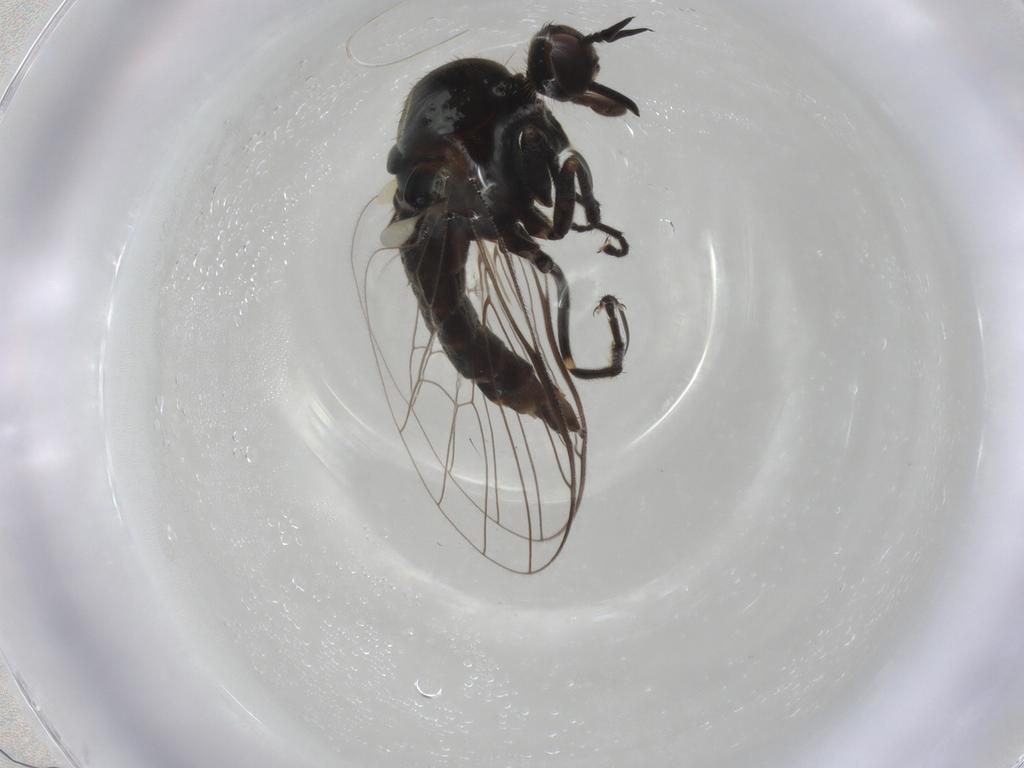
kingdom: Animalia
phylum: Arthropoda
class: Insecta
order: Diptera
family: Empididae
